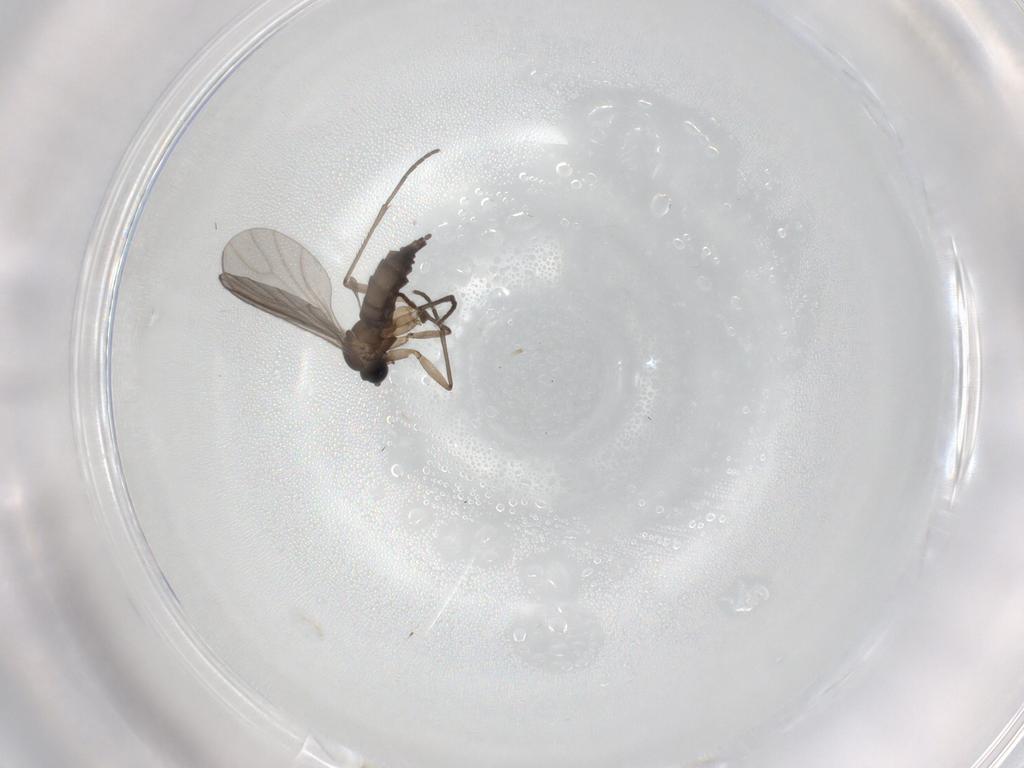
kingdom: Animalia
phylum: Arthropoda
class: Insecta
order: Diptera
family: Sciaridae
